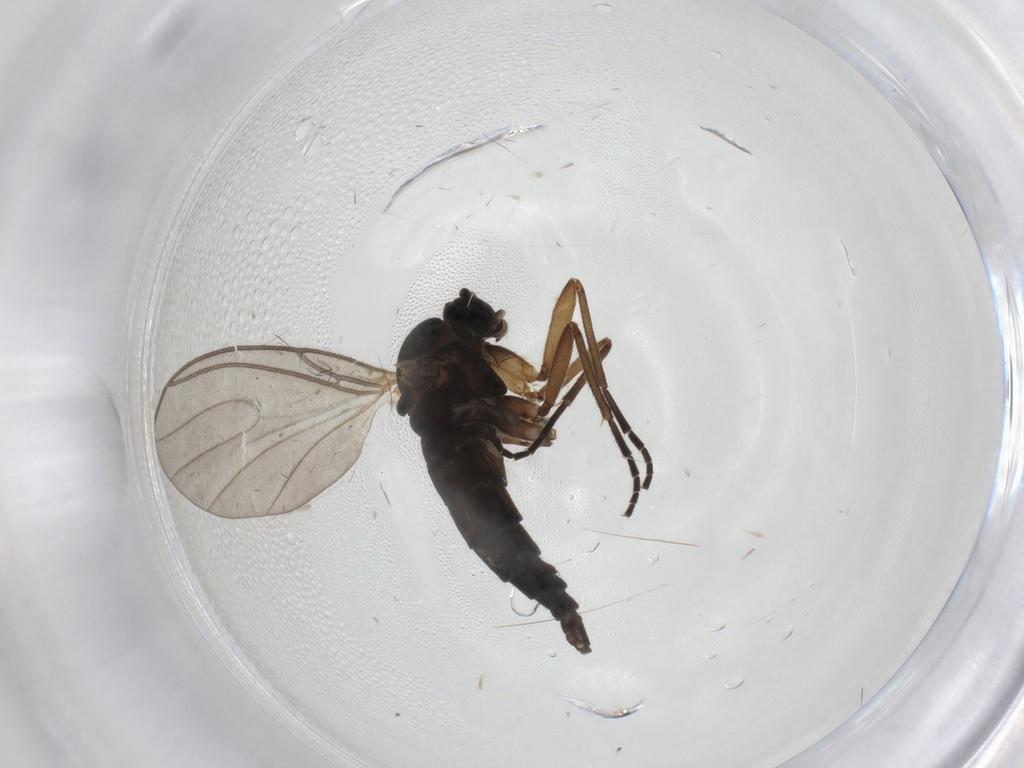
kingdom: Animalia
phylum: Arthropoda
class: Insecta
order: Diptera
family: Sciaridae
